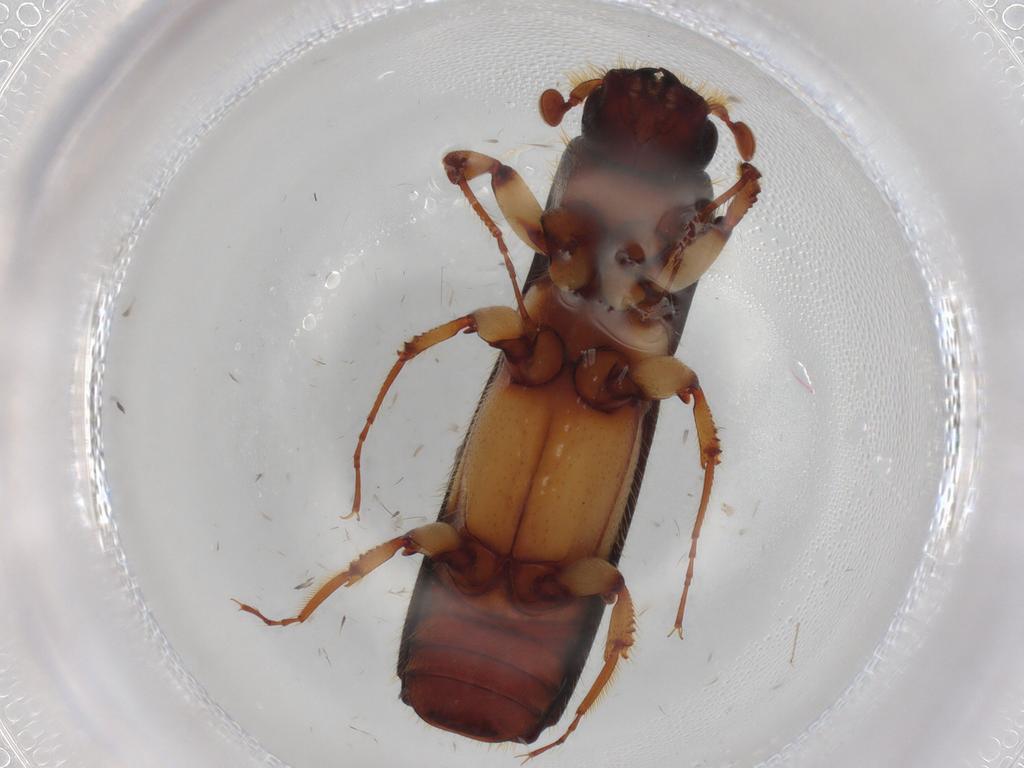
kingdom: Animalia
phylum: Arthropoda
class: Insecta
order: Coleoptera
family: Curculionidae
